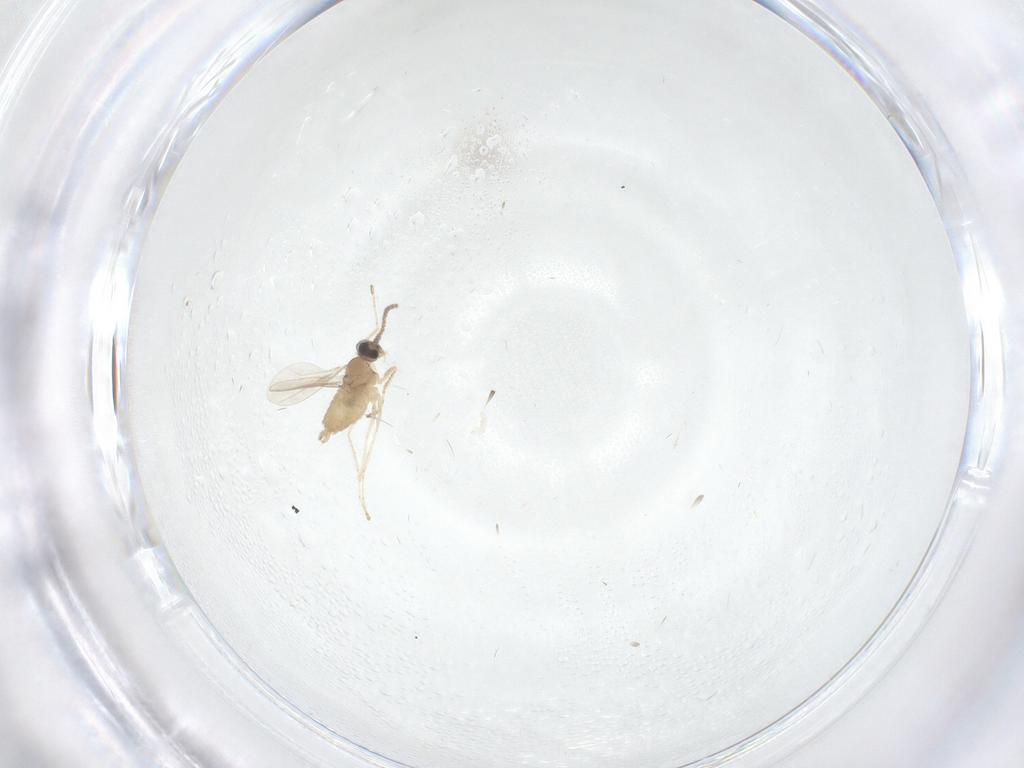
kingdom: Animalia
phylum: Arthropoda
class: Insecta
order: Diptera
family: Cecidomyiidae
